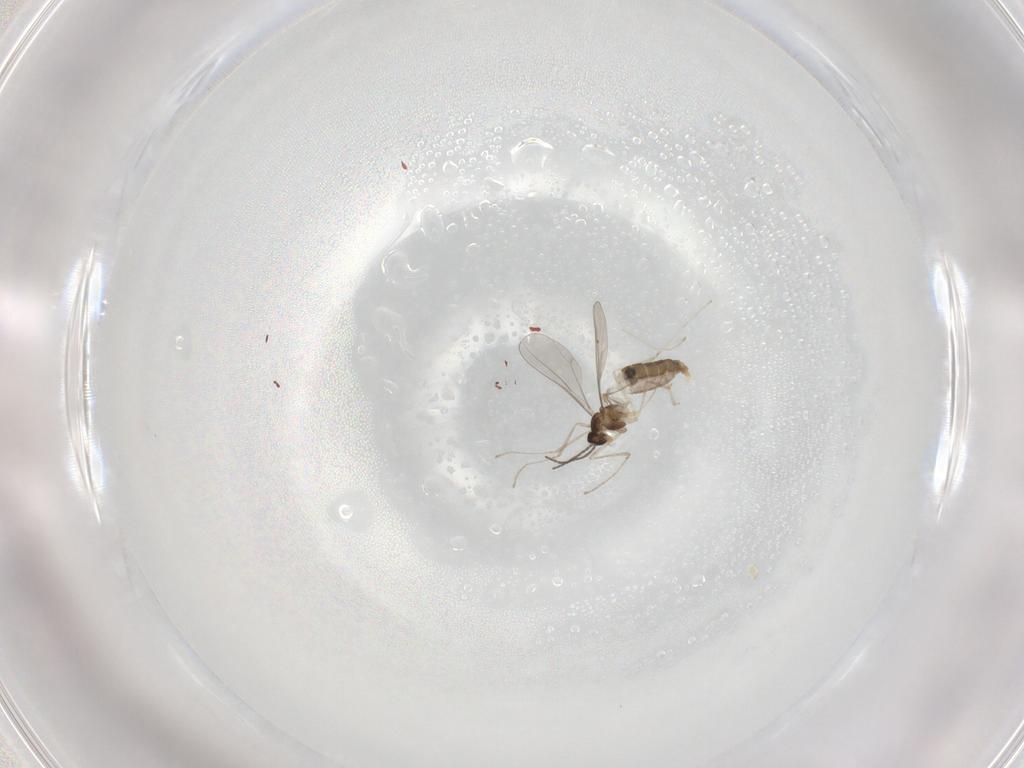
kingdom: Animalia
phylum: Arthropoda
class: Insecta
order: Diptera
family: Cecidomyiidae
